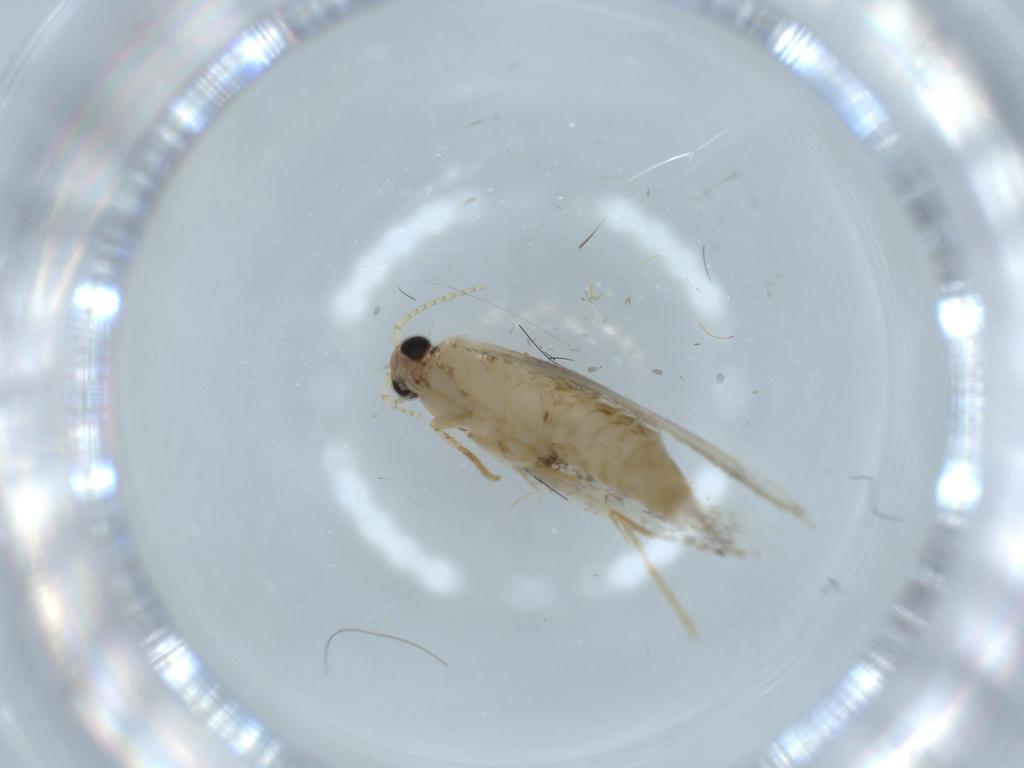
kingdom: Animalia
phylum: Arthropoda
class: Insecta
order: Lepidoptera
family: Tineidae
